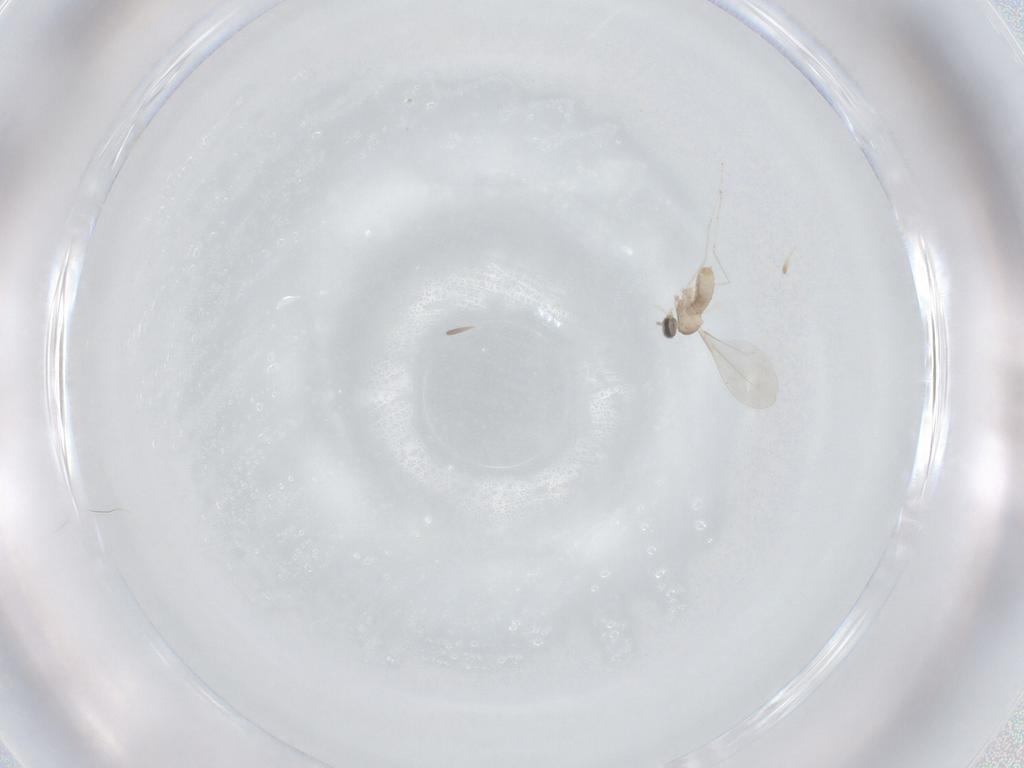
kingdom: Animalia
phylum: Arthropoda
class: Insecta
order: Diptera
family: Cecidomyiidae
